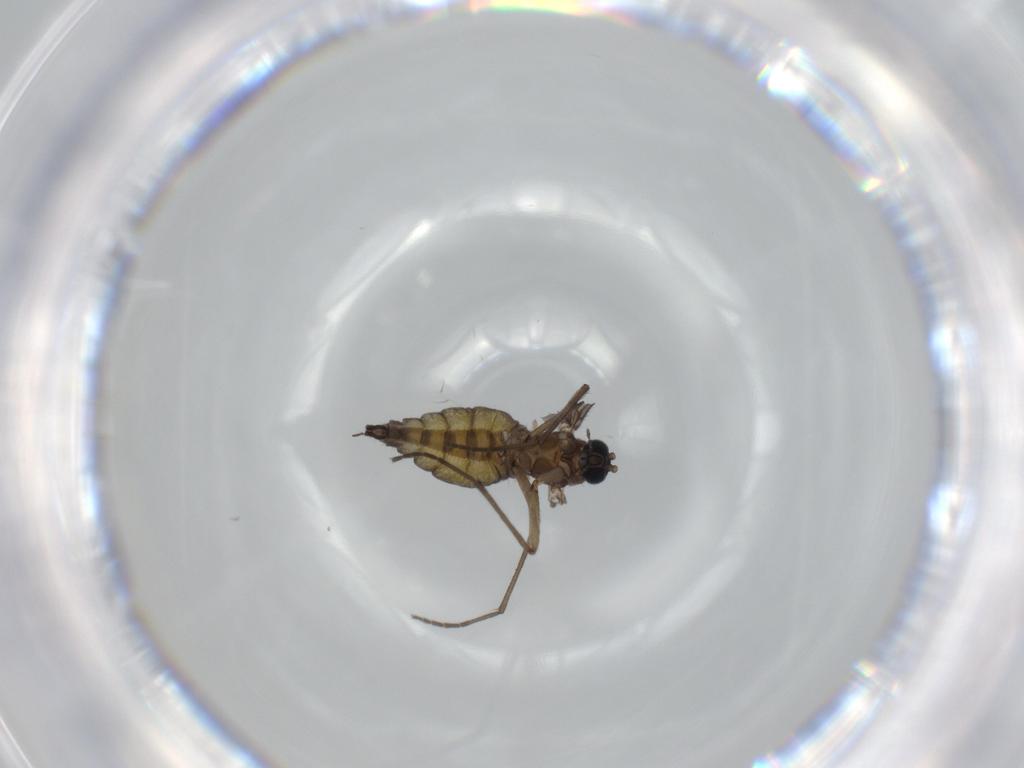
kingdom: Animalia
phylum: Arthropoda
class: Insecta
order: Diptera
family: Sciaridae
